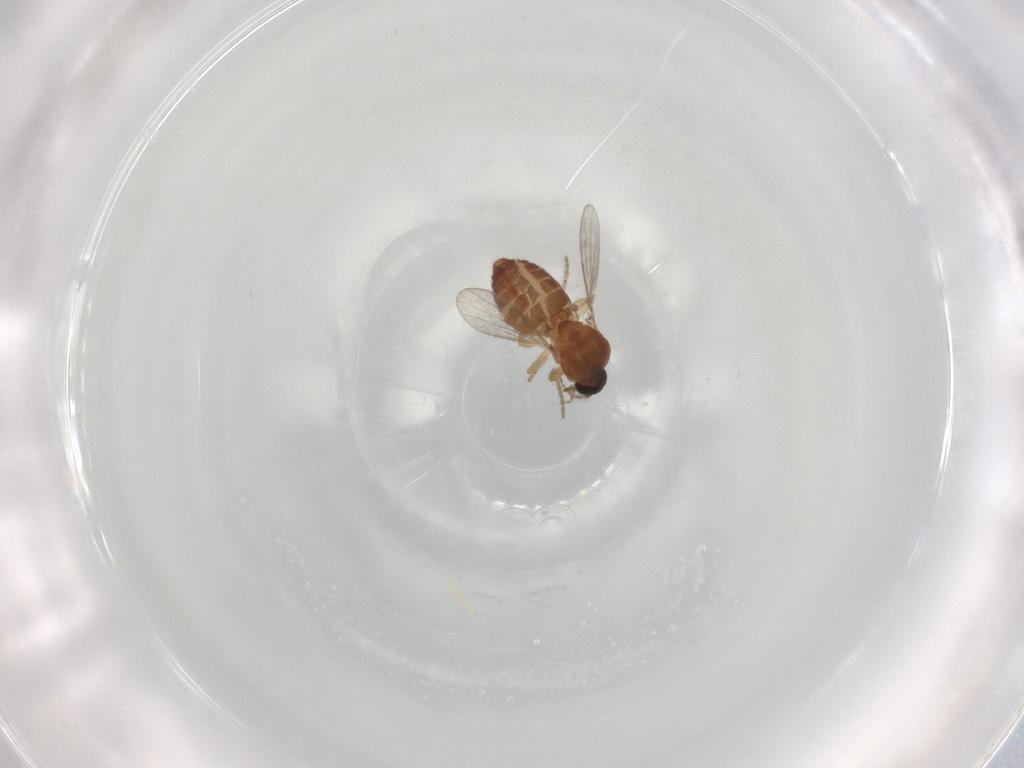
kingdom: Animalia
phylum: Arthropoda
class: Insecta
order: Diptera
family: Ceratopogonidae
